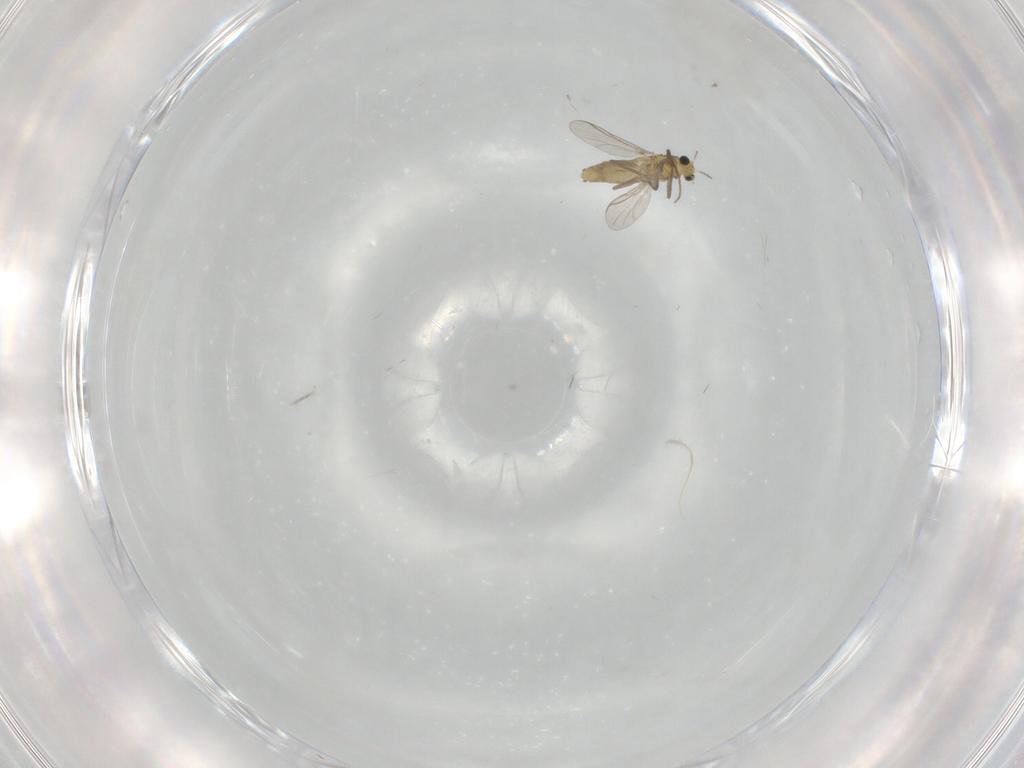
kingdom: Animalia
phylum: Arthropoda
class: Insecta
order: Diptera
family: Chironomidae
